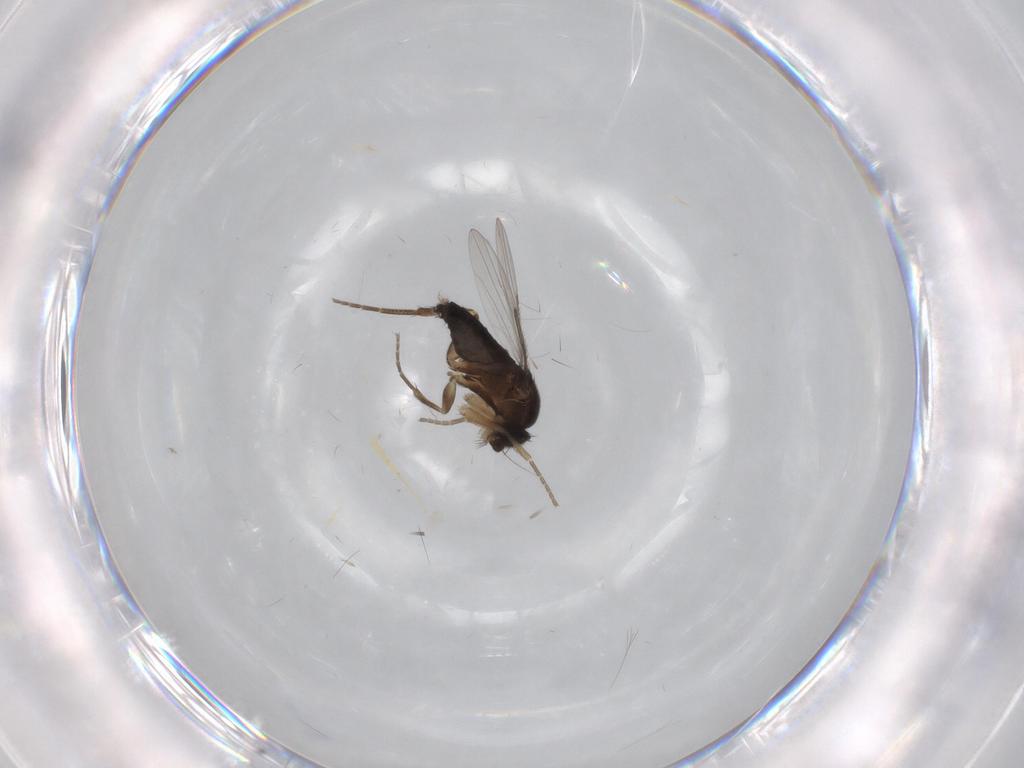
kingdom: Animalia
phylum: Arthropoda
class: Insecta
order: Diptera
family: Phoridae
